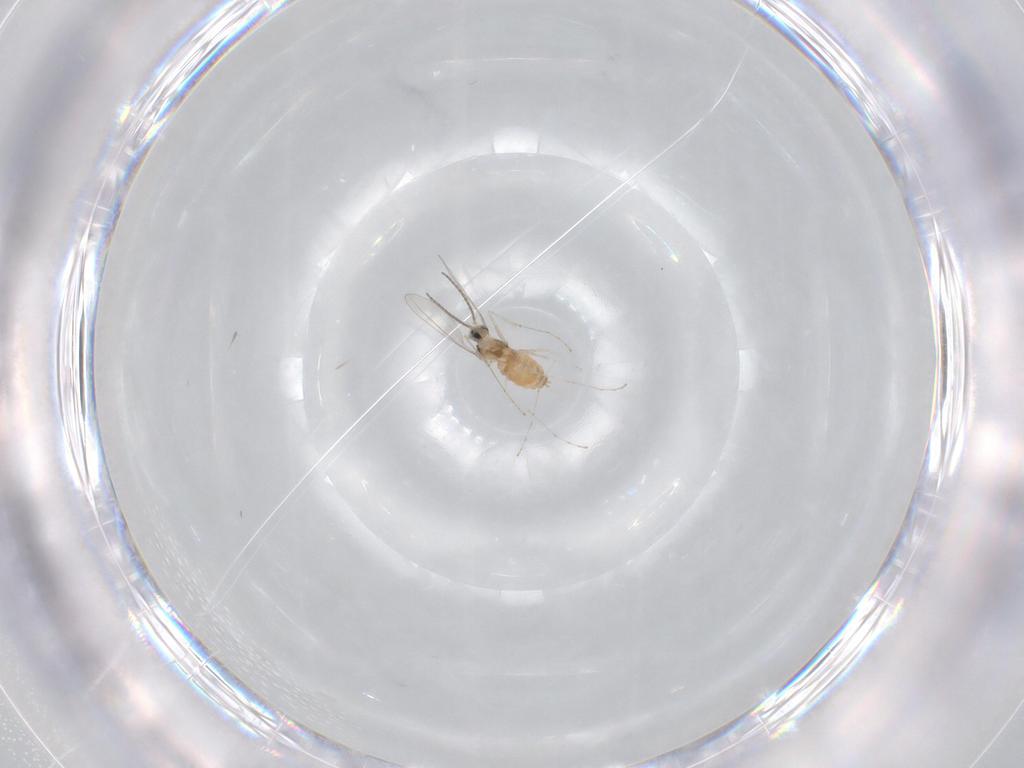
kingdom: Animalia
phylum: Arthropoda
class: Insecta
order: Diptera
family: Cecidomyiidae
